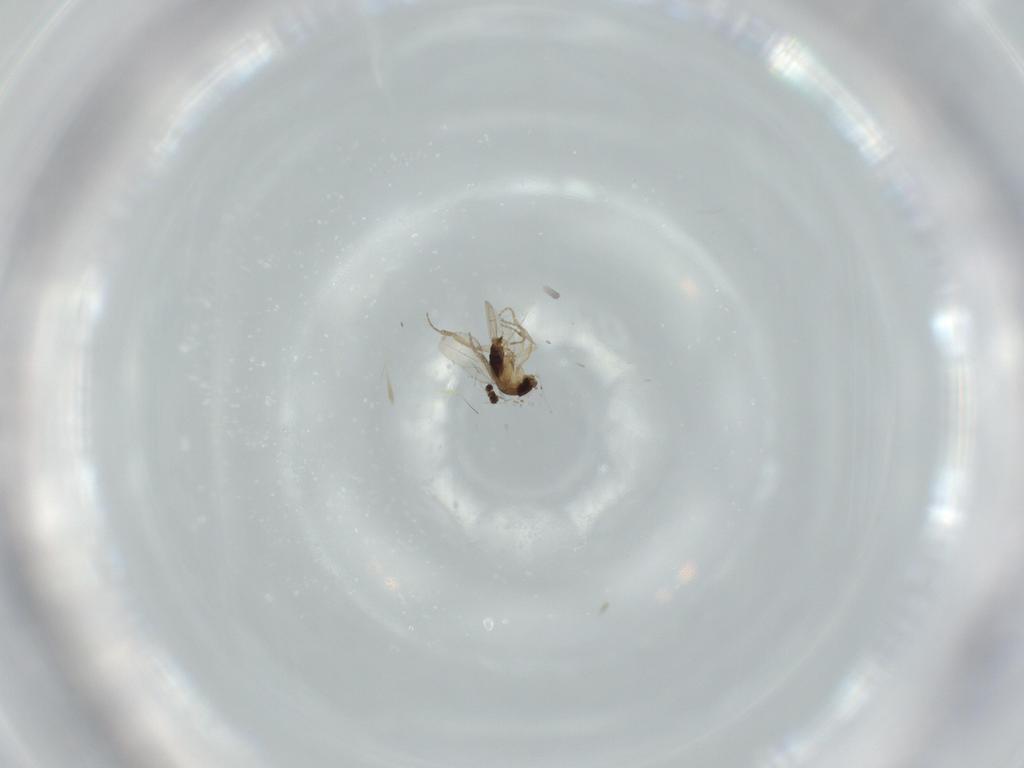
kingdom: Animalia
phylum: Arthropoda
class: Insecta
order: Diptera
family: Phoridae
